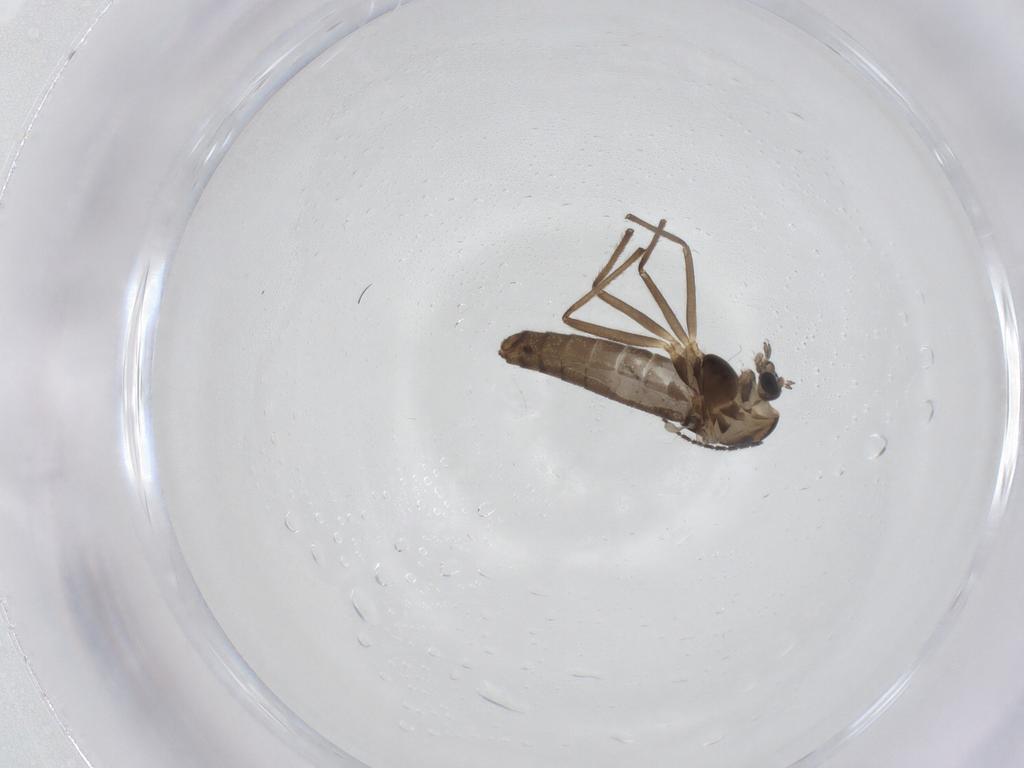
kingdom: Animalia
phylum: Arthropoda
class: Insecta
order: Diptera
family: Chironomidae
